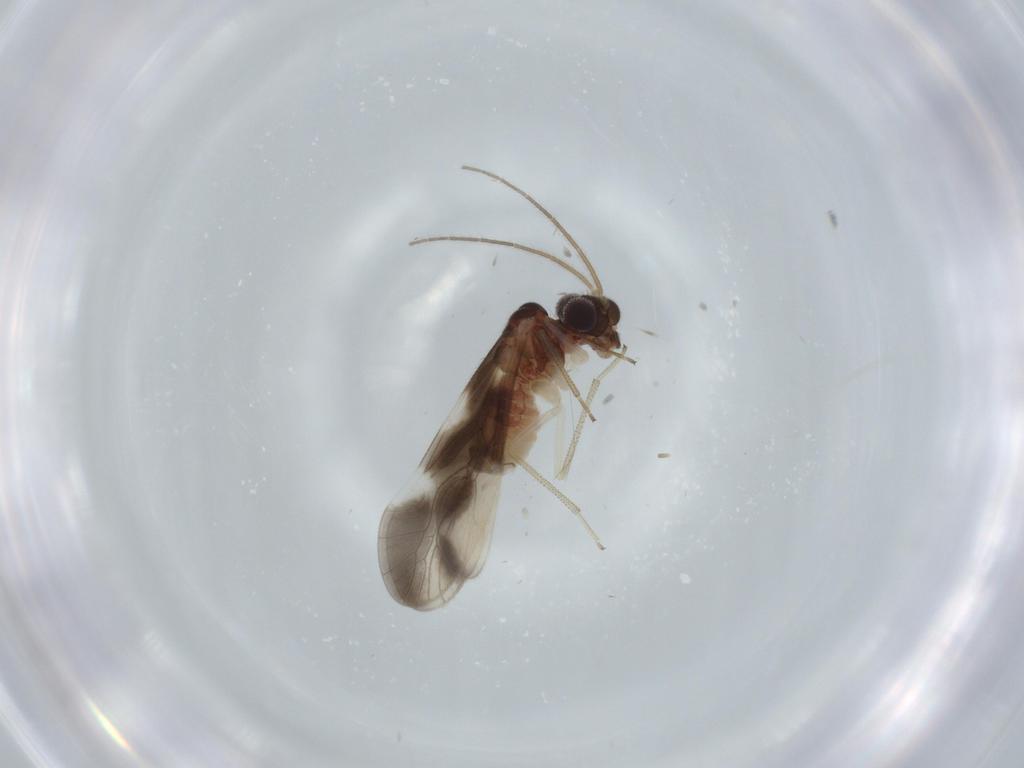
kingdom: Animalia
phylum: Arthropoda
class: Insecta
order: Psocodea
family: Caeciliusidae
